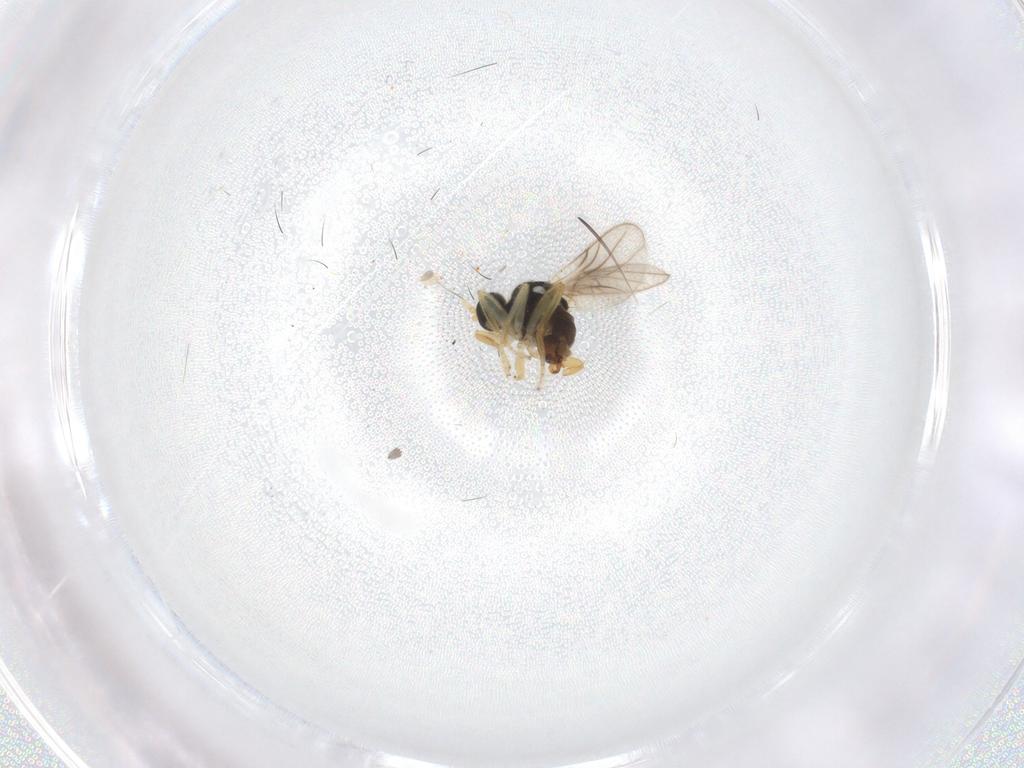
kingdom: Animalia
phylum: Arthropoda
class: Insecta
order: Diptera
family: Hybotidae
